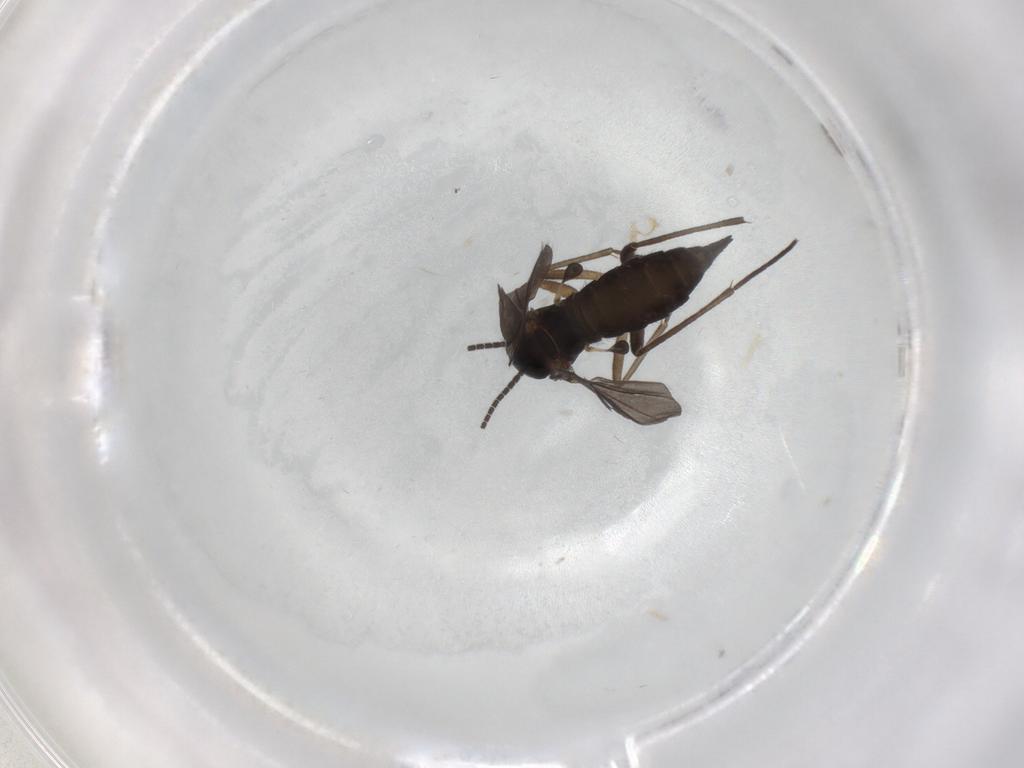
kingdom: Animalia
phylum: Arthropoda
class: Insecta
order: Diptera
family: Sciaridae
